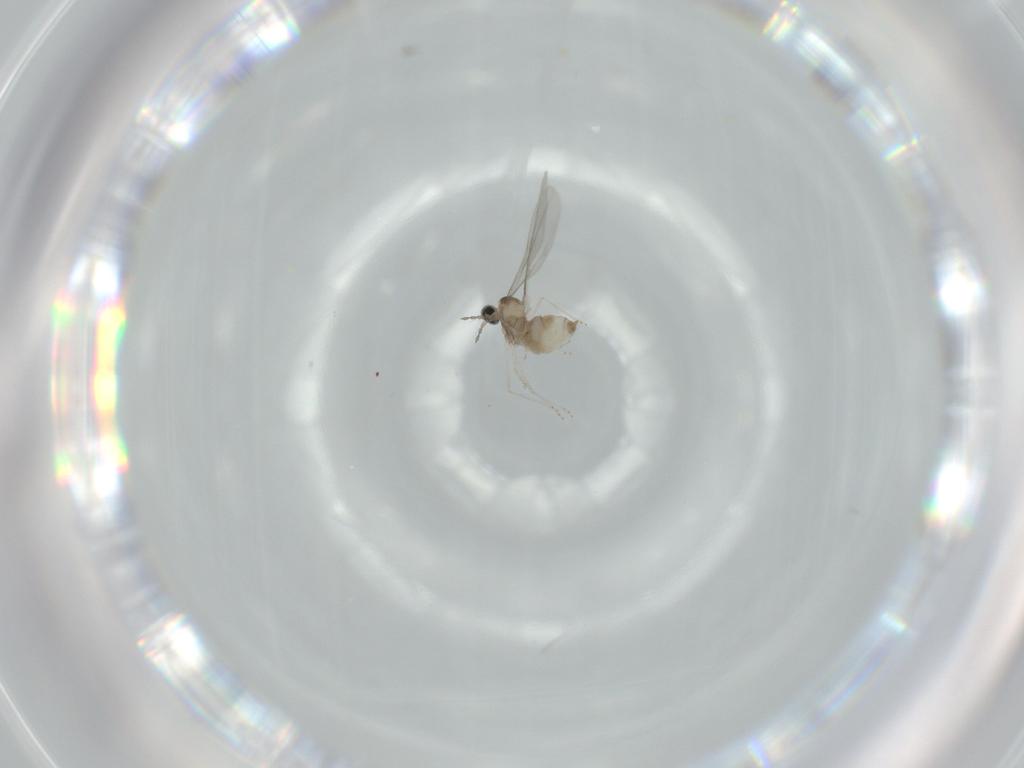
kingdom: Animalia
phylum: Arthropoda
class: Insecta
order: Diptera
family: Cecidomyiidae
